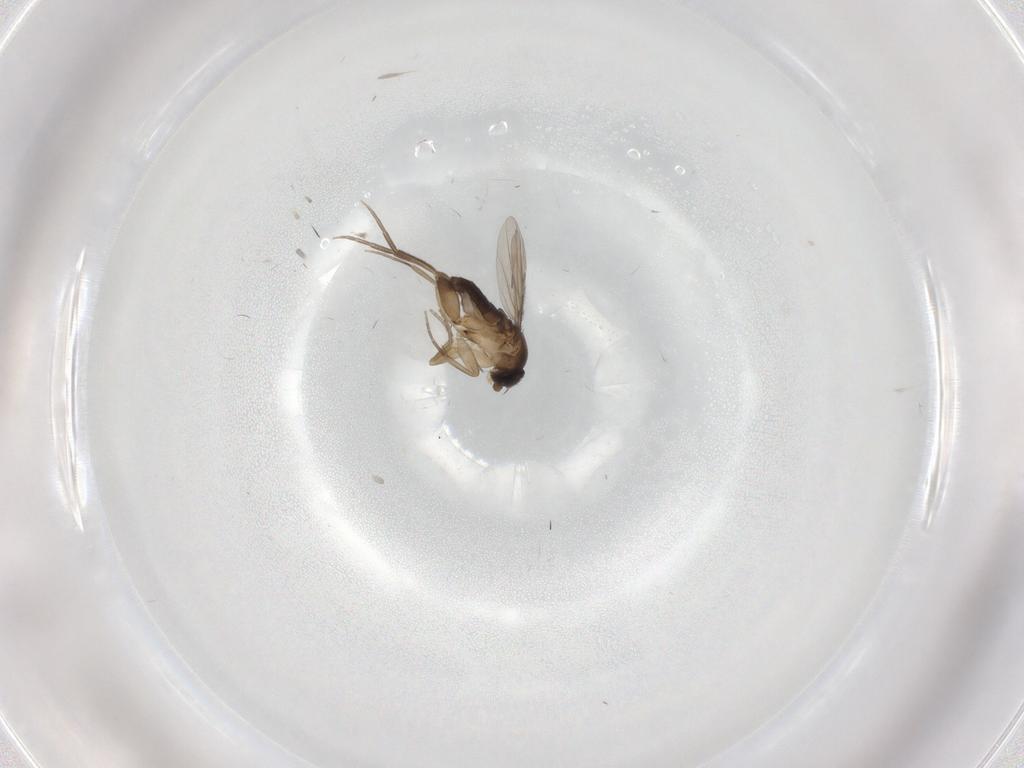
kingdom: Animalia
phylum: Arthropoda
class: Insecta
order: Diptera
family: Cecidomyiidae
